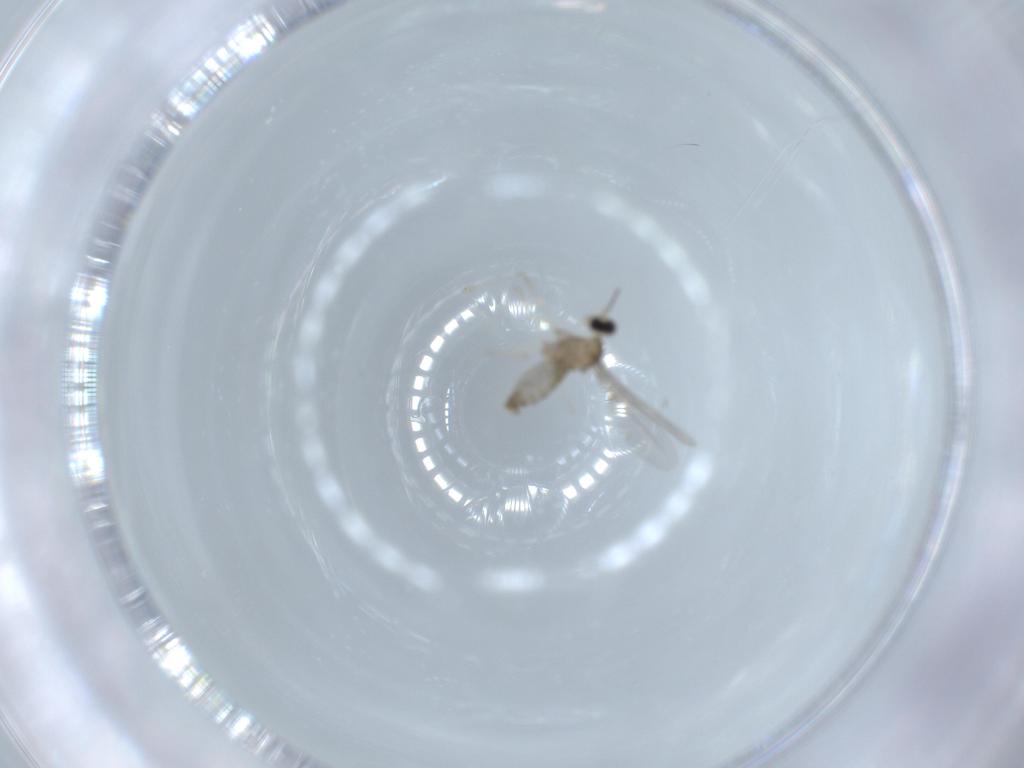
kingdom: Animalia
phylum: Arthropoda
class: Insecta
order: Diptera
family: Cecidomyiidae
